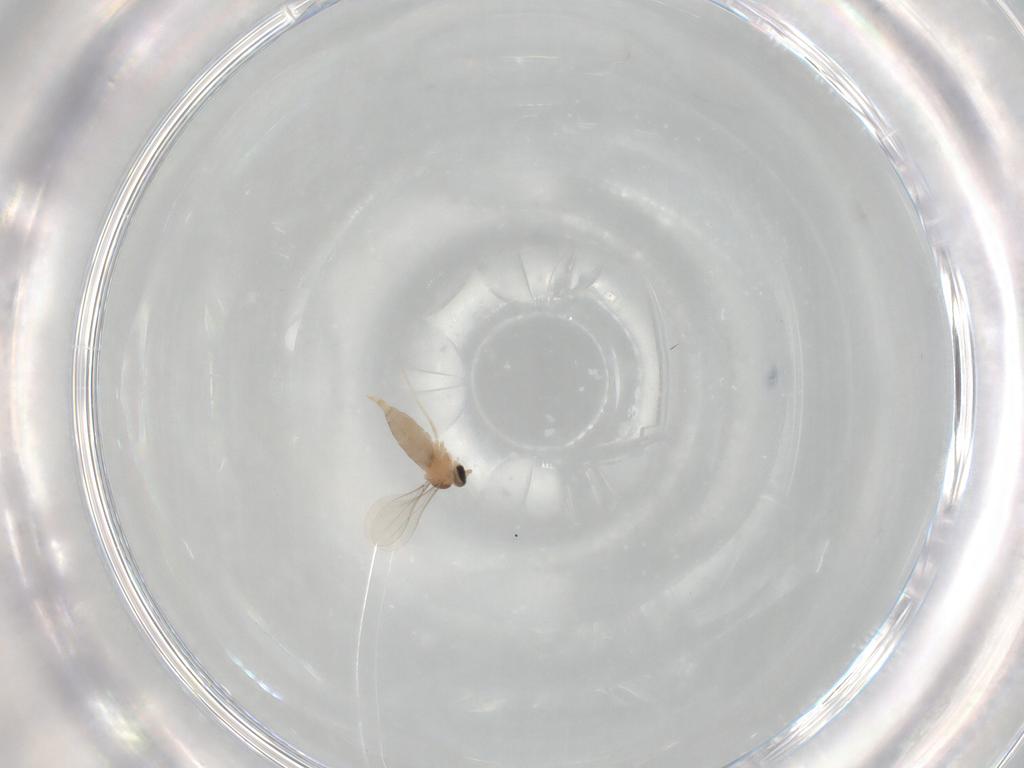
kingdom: Animalia
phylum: Arthropoda
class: Insecta
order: Diptera
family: Cecidomyiidae
